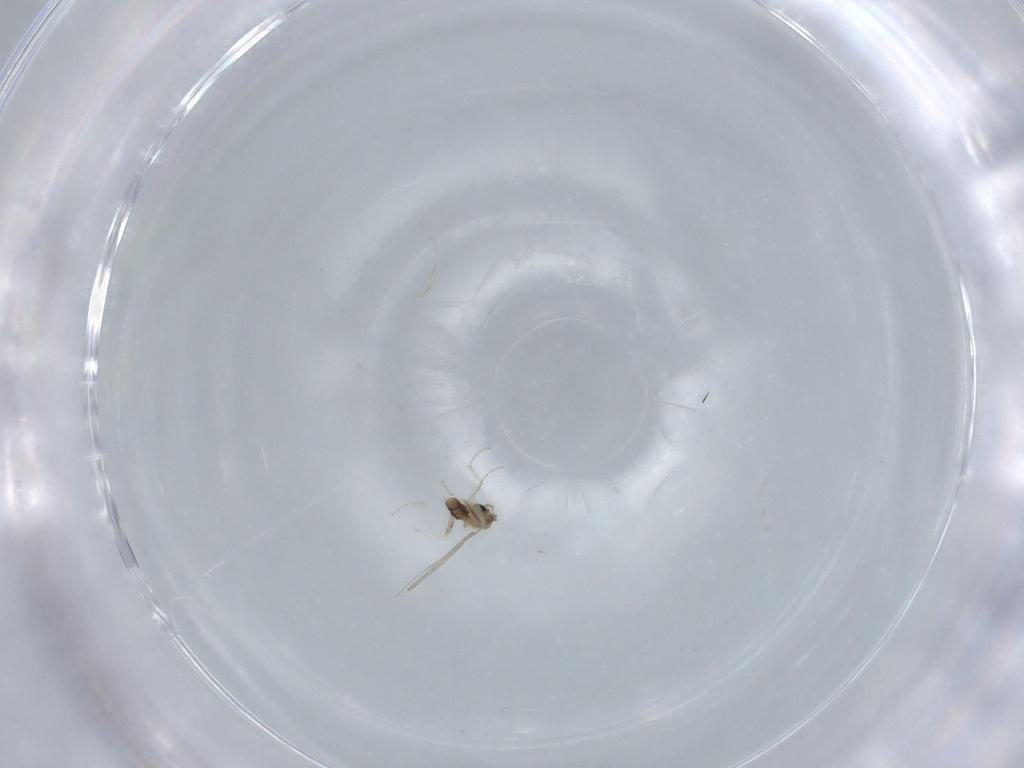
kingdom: Animalia
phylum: Arthropoda
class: Insecta
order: Diptera
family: Cecidomyiidae
